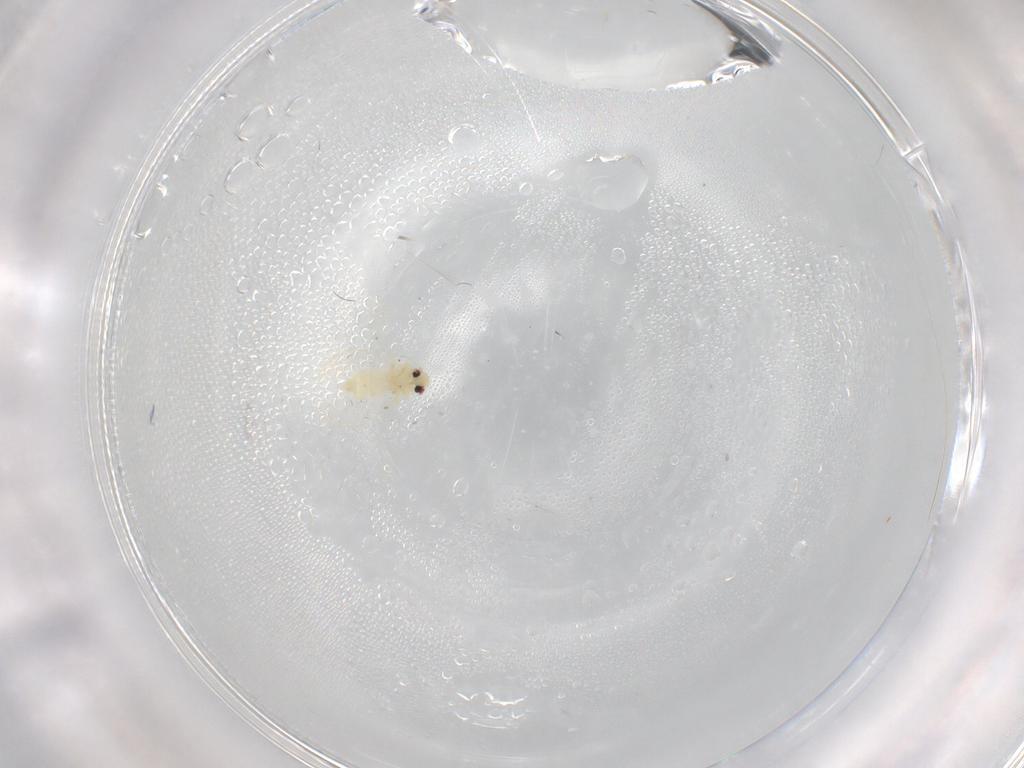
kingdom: Animalia
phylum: Arthropoda
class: Insecta
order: Hemiptera
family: Aleyrodidae
